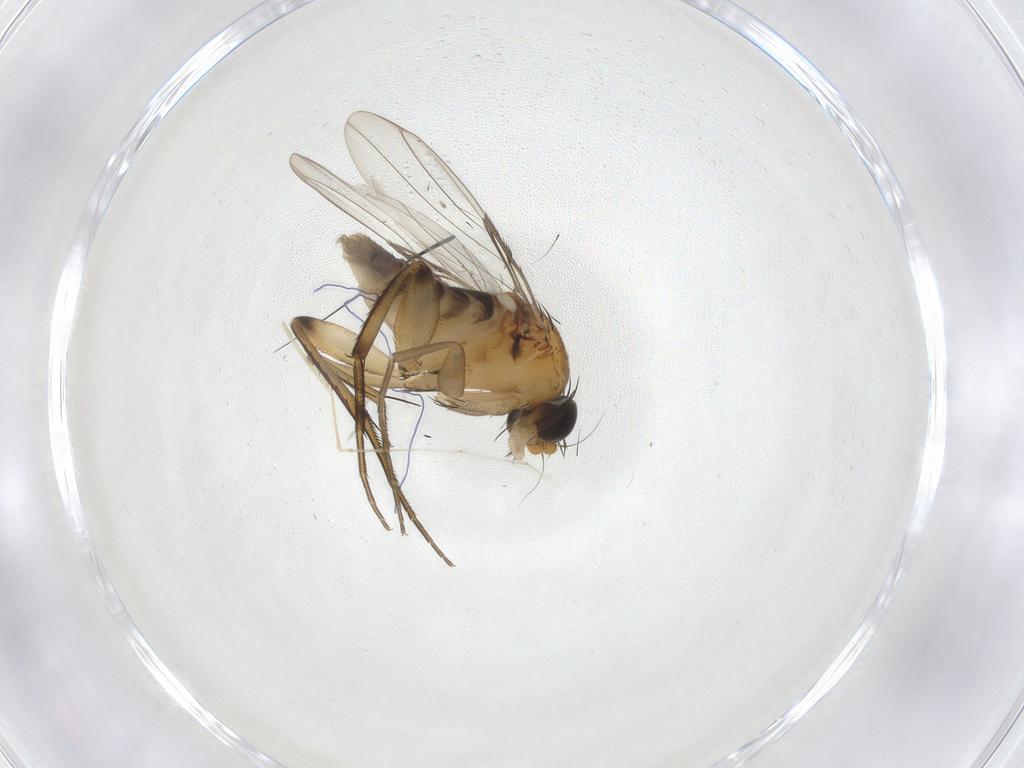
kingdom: Animalia
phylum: Arthropoda
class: Insecta
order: Diptera
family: Phoridae
